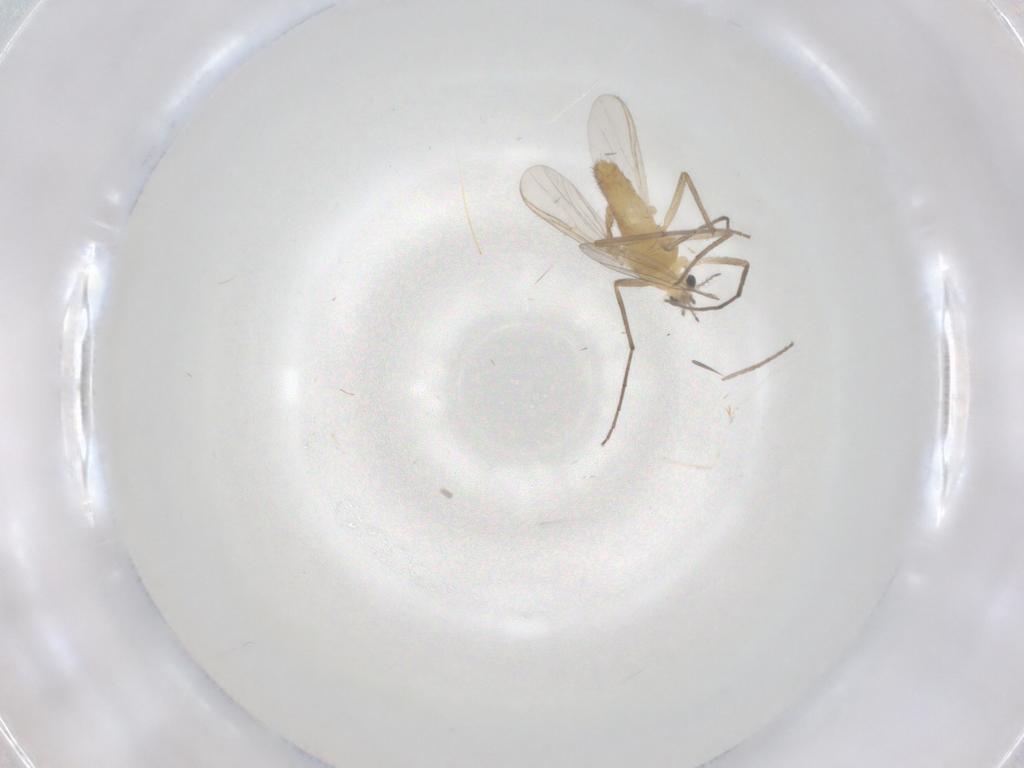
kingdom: Animalia
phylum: Arthropoda
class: Insecta
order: Diptera
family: Chironomidae
